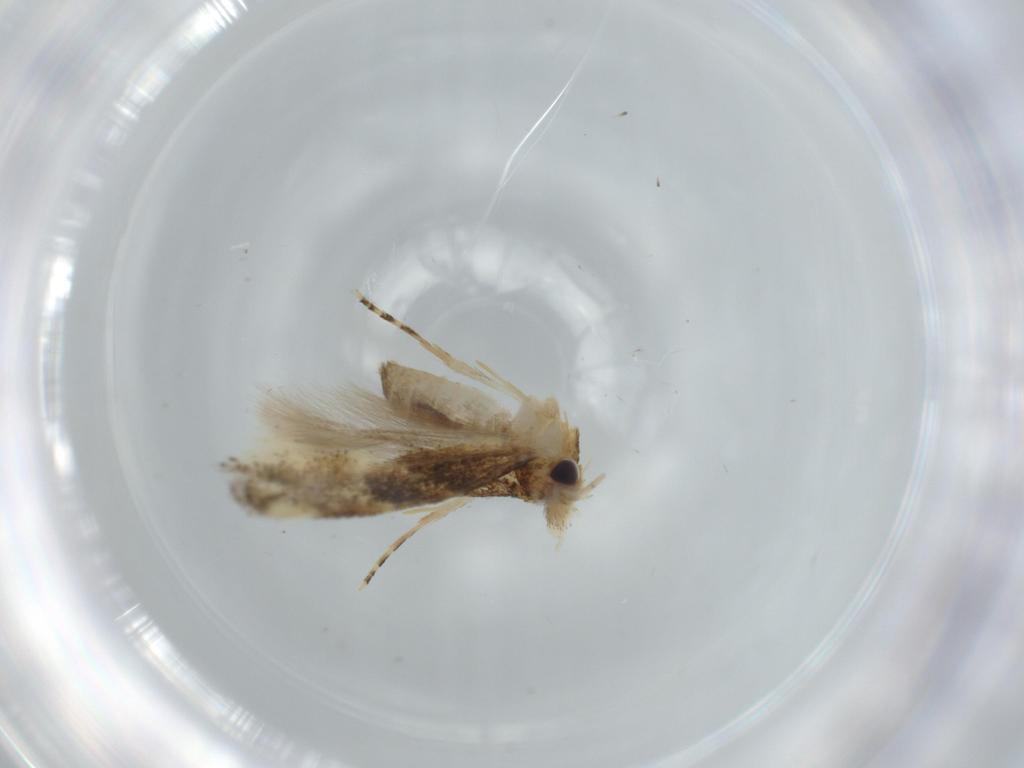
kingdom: Animalia
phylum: Arthropoda
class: Insecta
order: Lepidoptera
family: Bucculatricidae
